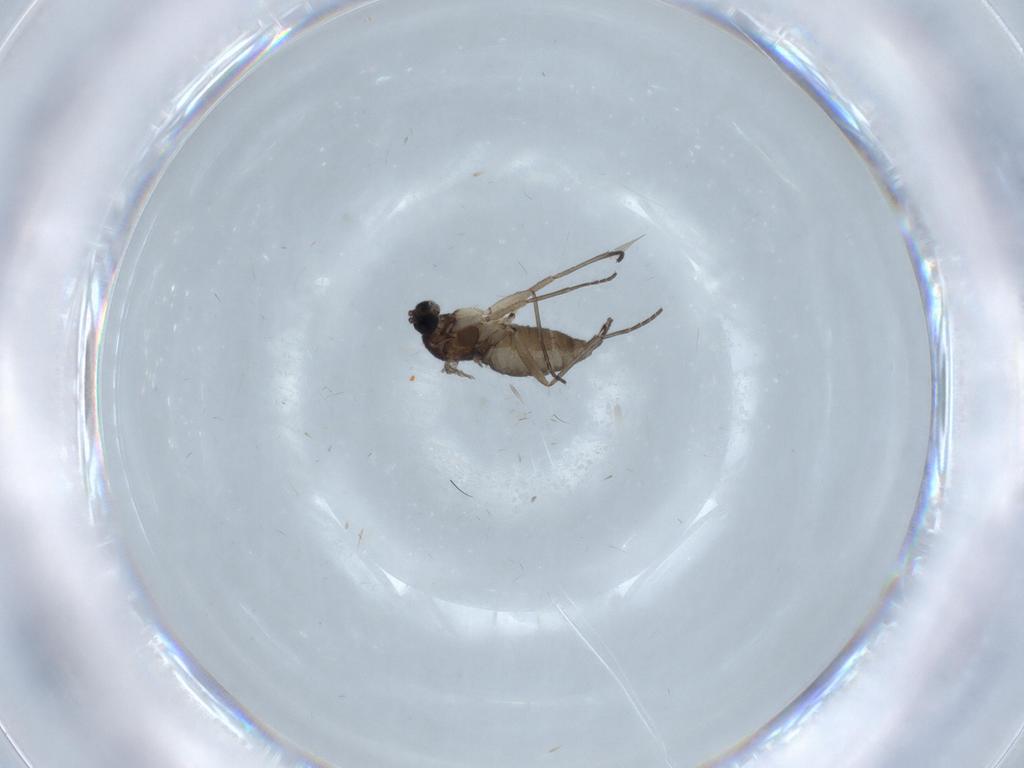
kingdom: Animalia
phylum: Arthropoda
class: Insecta
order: Diptera
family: Sciaridae
